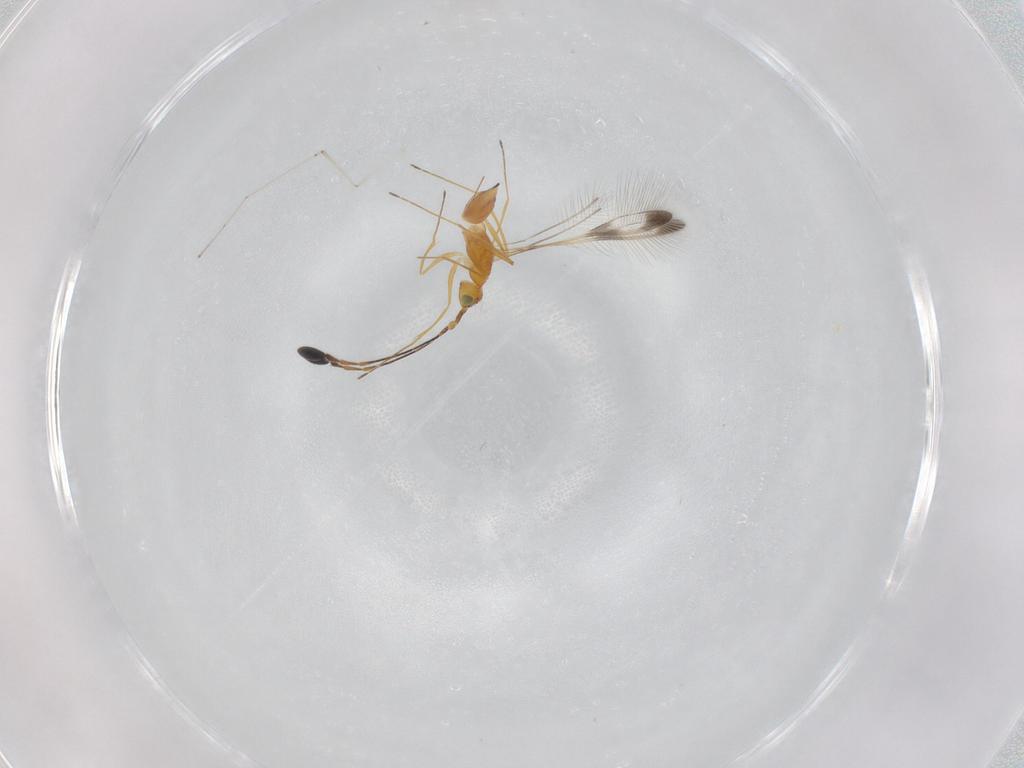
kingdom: Animalia
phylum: Arthropoda
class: Insecta
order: Hymenoptera
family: Mymaridae
